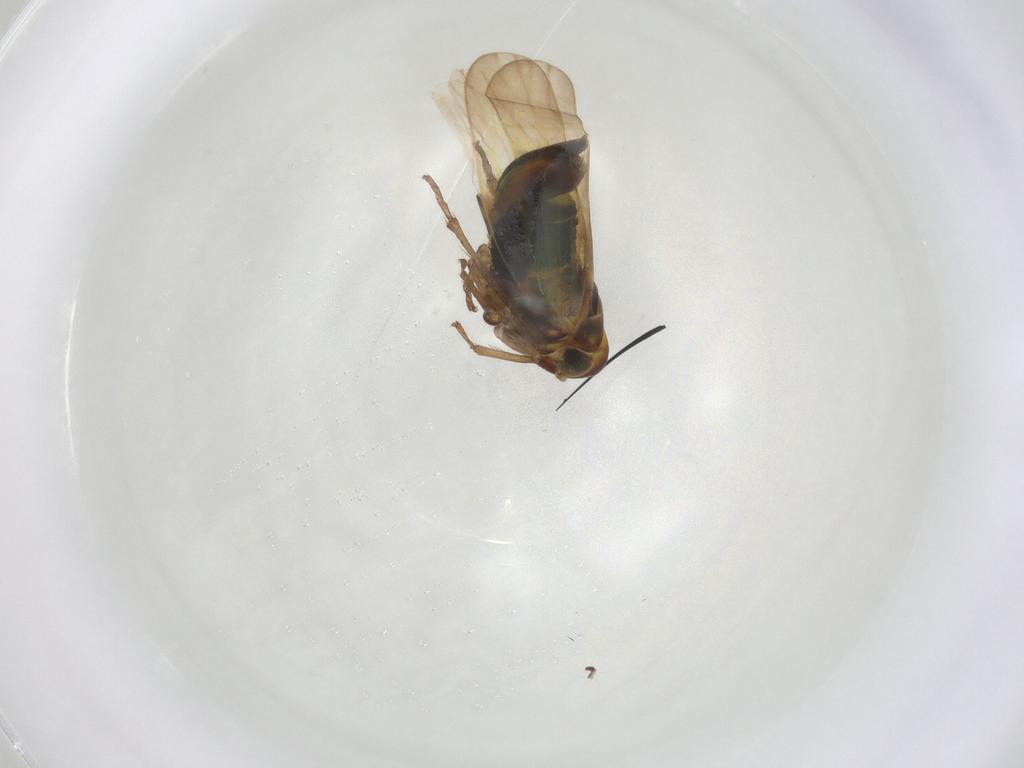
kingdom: Animalia
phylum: Arthropoda
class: Insecta
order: Hemiptera
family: Cicadellidae
